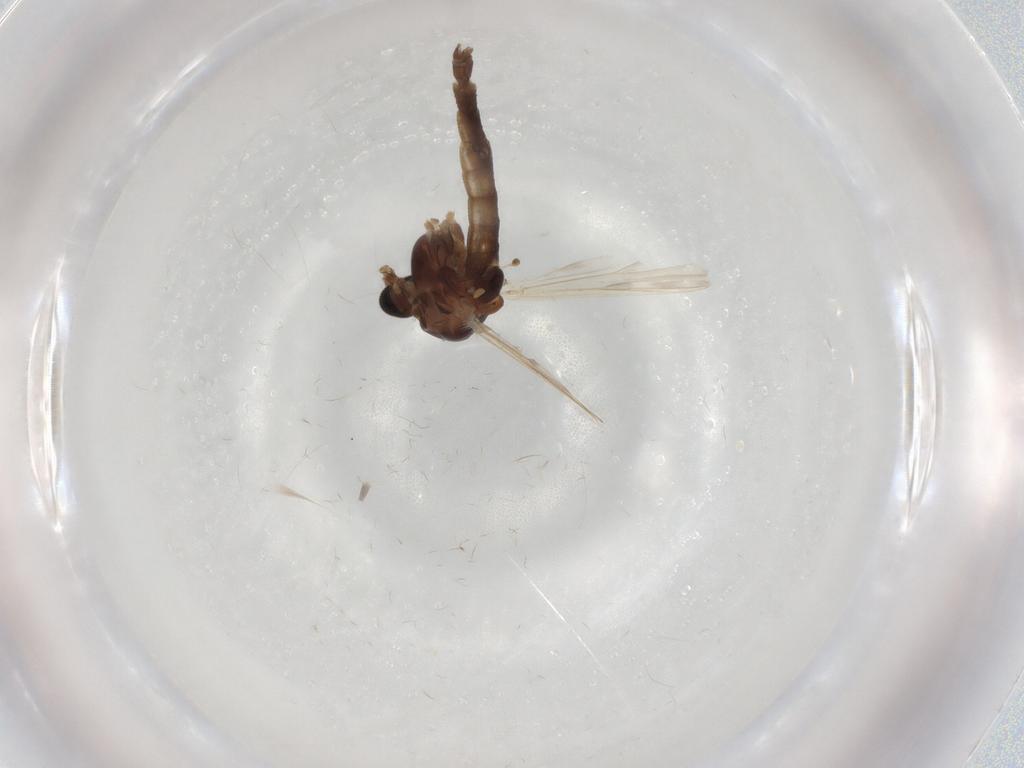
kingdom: Animalia
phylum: Arthropoda
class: Insecta
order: Diptera
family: Chironomidae
